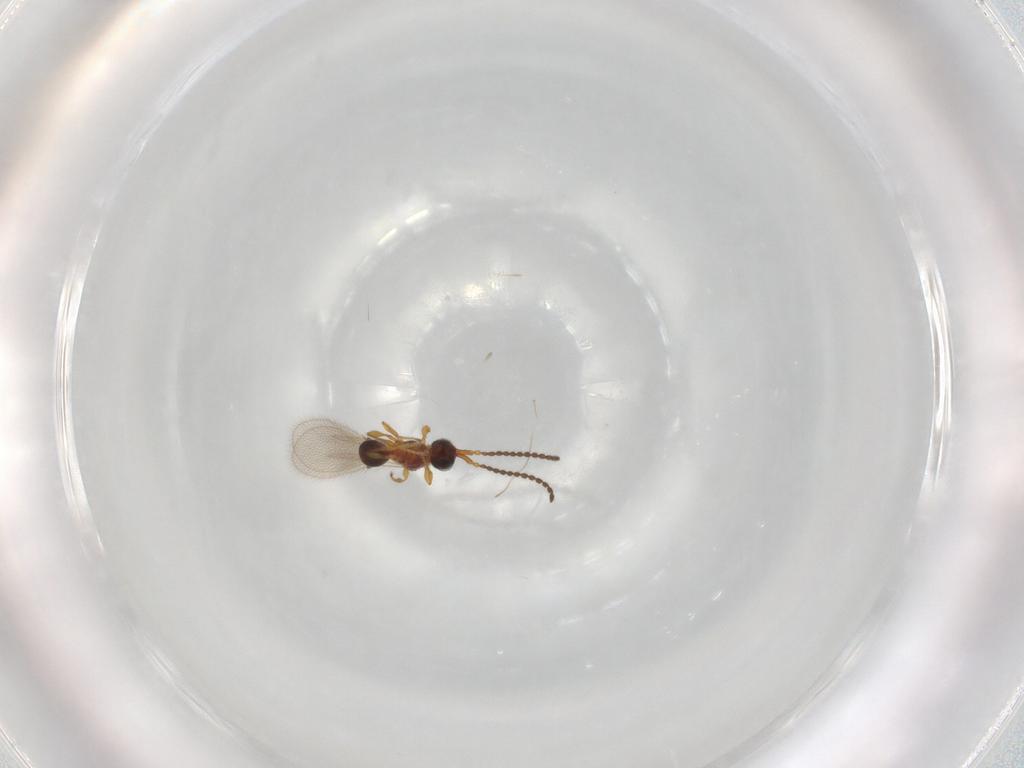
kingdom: Animalia
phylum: Arthropoda
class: Insecta
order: Hymenoptera
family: Diapriidae
